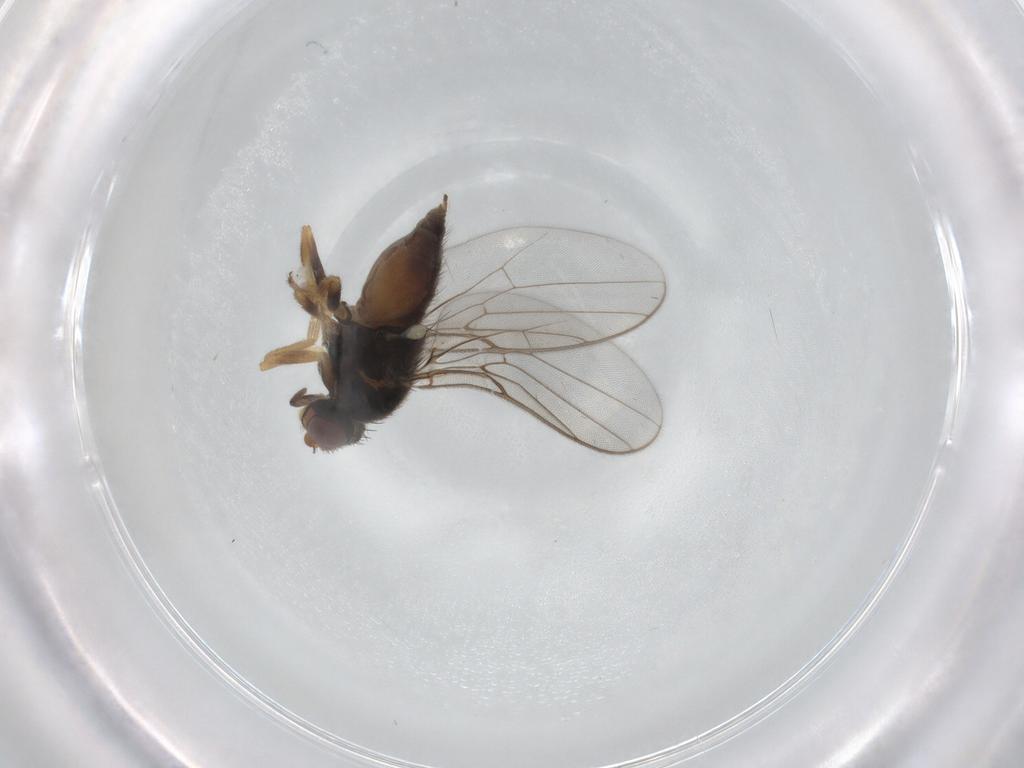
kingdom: Animalia
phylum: Arthropoda
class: Insecta
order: Diptera
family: Chloropidae
